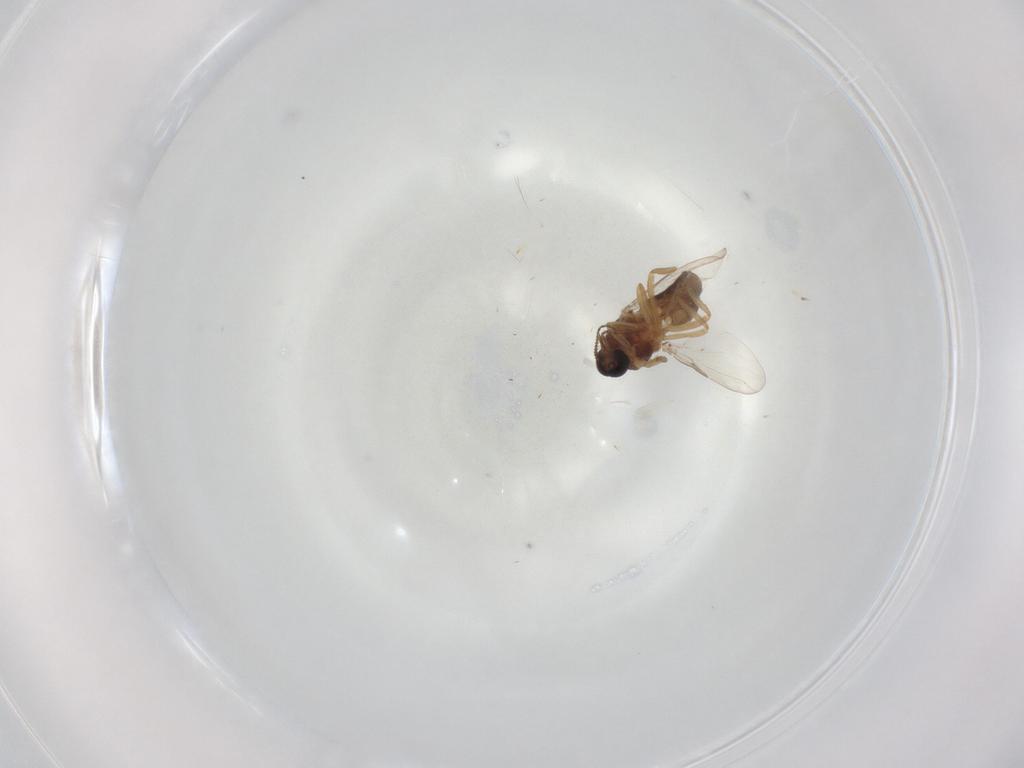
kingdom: Animalia
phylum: Arthropoda
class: Insecta
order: Diptera
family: Ceratopogonidae
